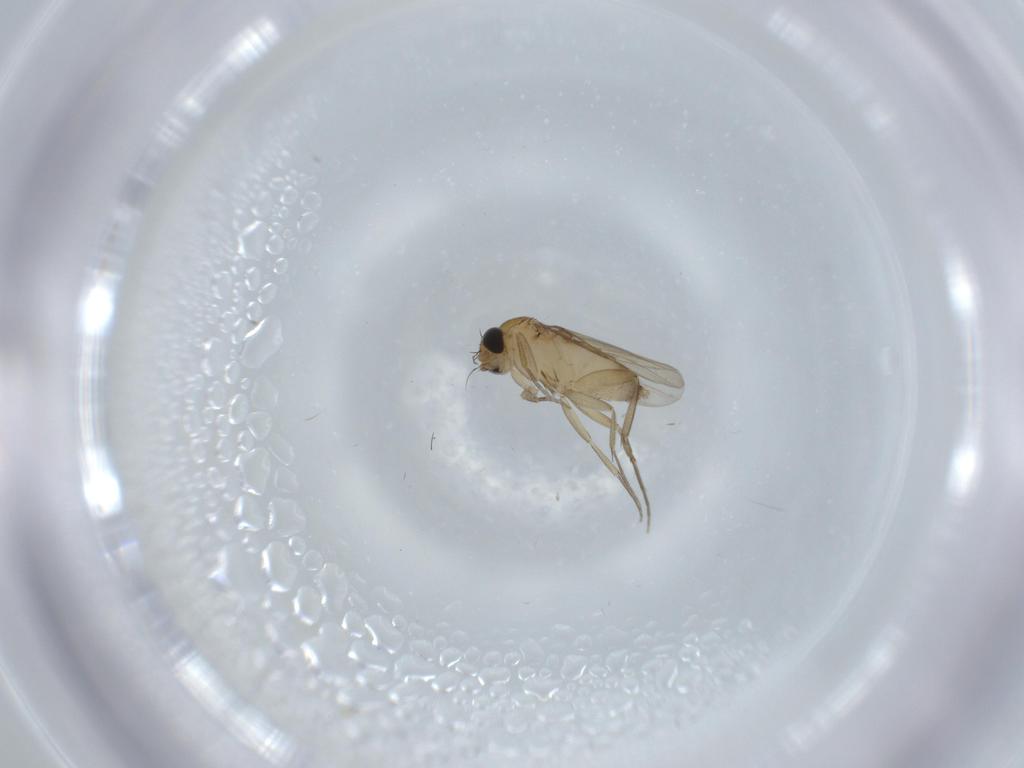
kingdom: Animalia
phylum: Arthropoda
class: Insecta
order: Diptera
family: Phoridae
